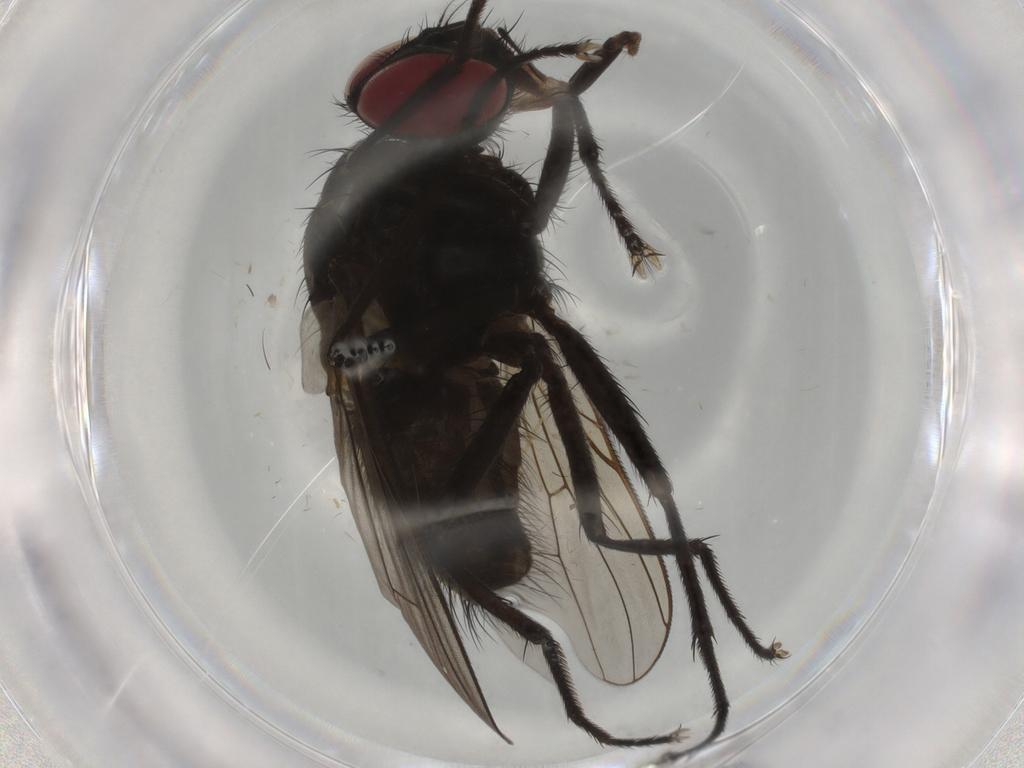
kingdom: Animalia
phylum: Arthropoda
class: Insecta
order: Diptera
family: Muscidae
